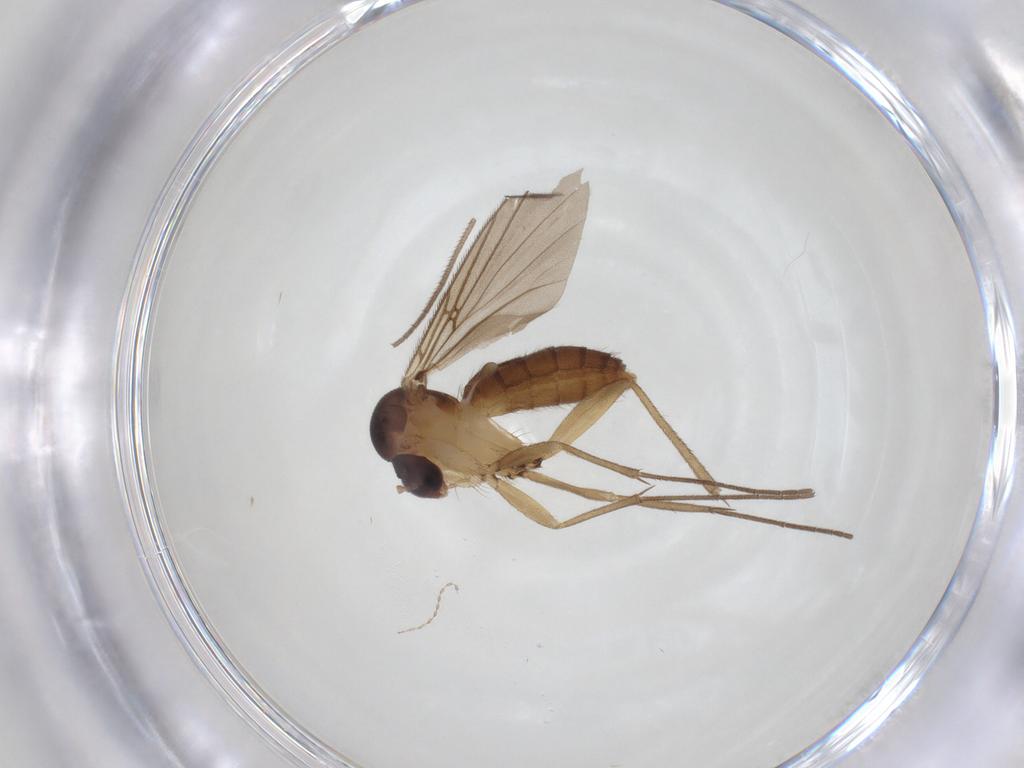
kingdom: Animalia
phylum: Arthropoda
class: Insecta
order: Diptera
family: Cecidomyiidae
